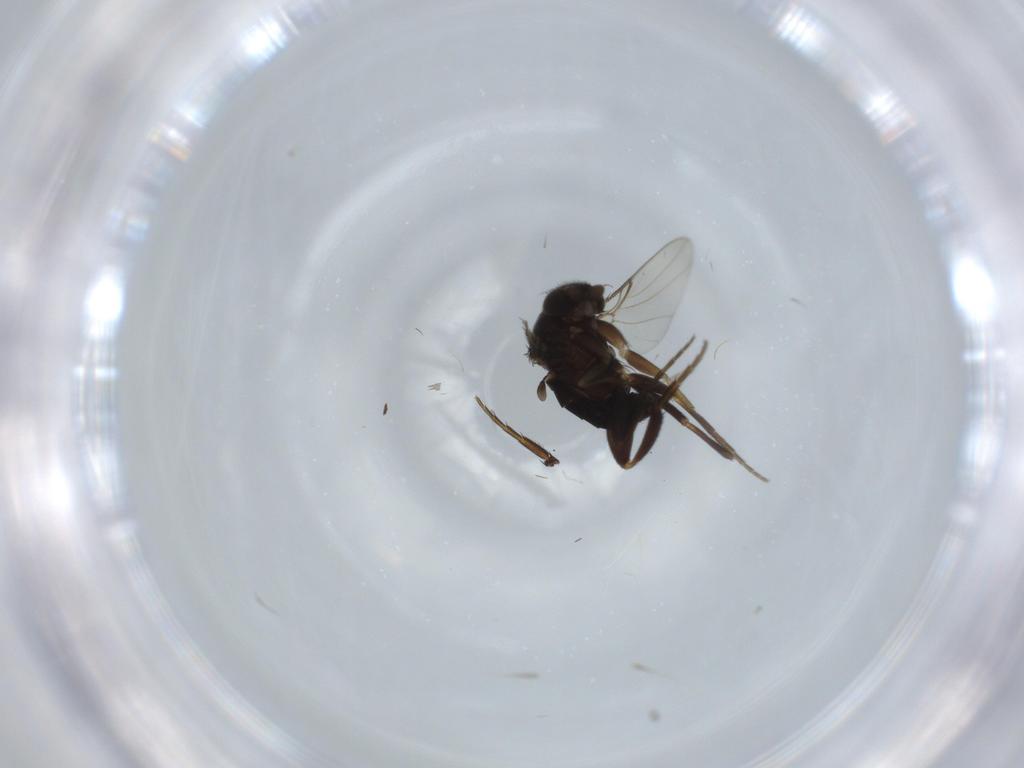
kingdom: Animalia
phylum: Arthropoda
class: Insecta
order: Diptera
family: Phoridae
